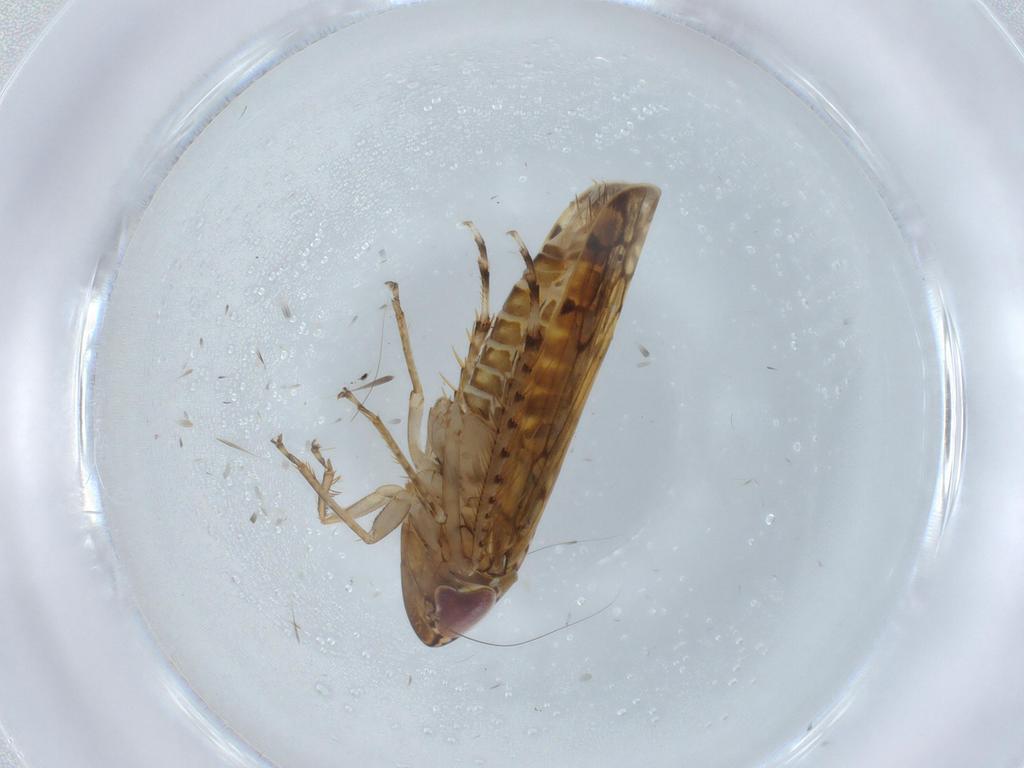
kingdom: Animalia
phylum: Arthropoda
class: Insecta
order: Hemiptera
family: Cicadellidae
